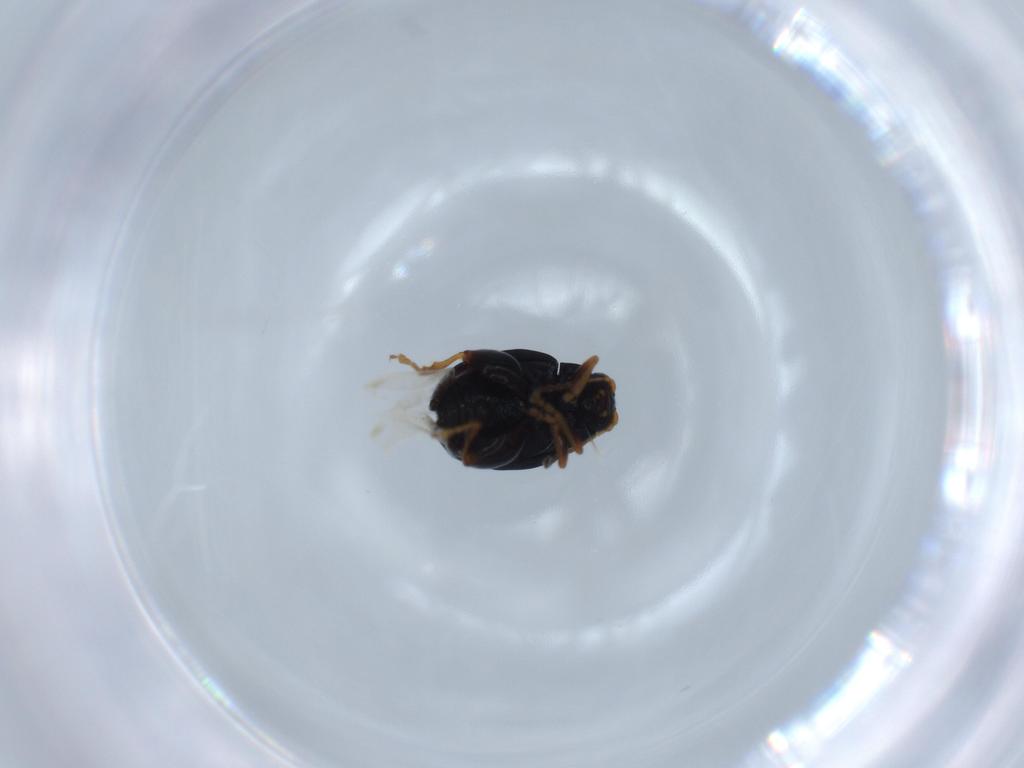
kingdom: Animalia
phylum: Arthropoda
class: Insecta
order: Coleoptera
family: Chrysomelidae
